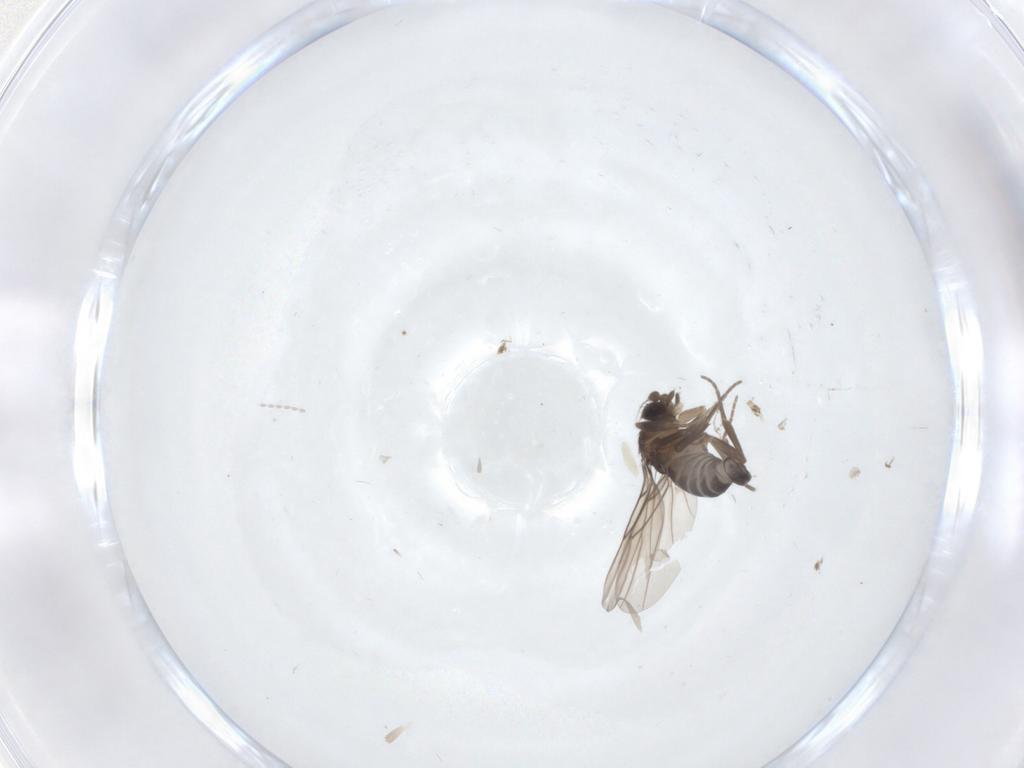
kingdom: Animalia
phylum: Arthropoda
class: Insecta
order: Diptera
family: Phoridae
